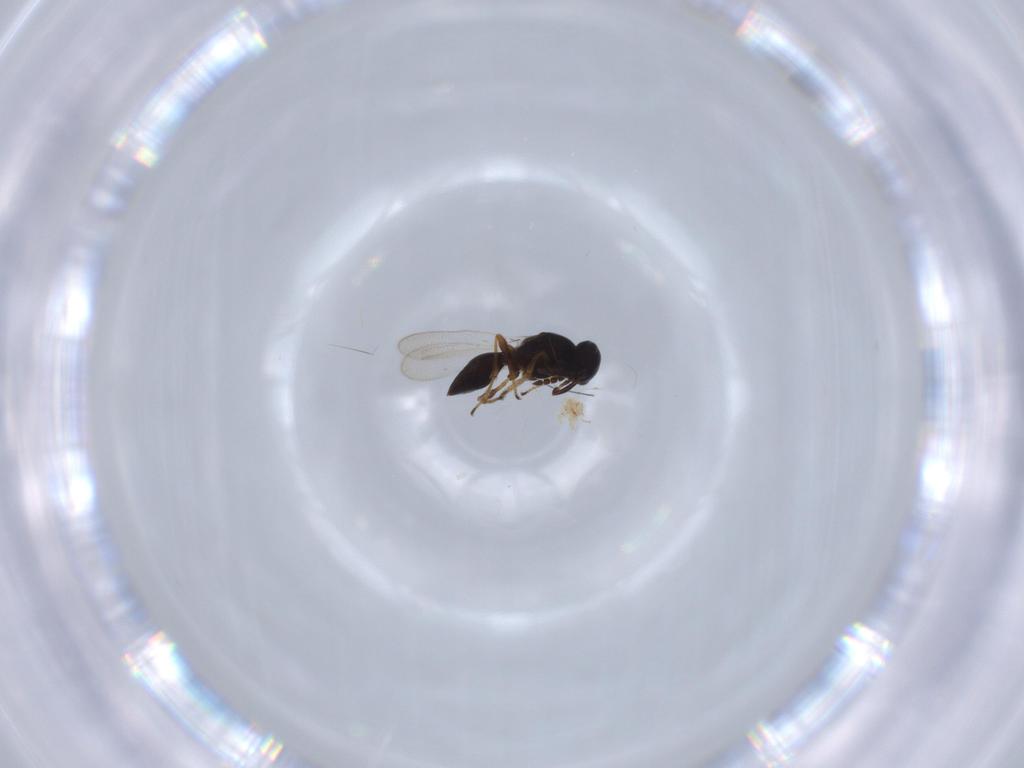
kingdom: Animalia
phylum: Arthropoda
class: Insecta
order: Hymenoptera
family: Platygastridae
